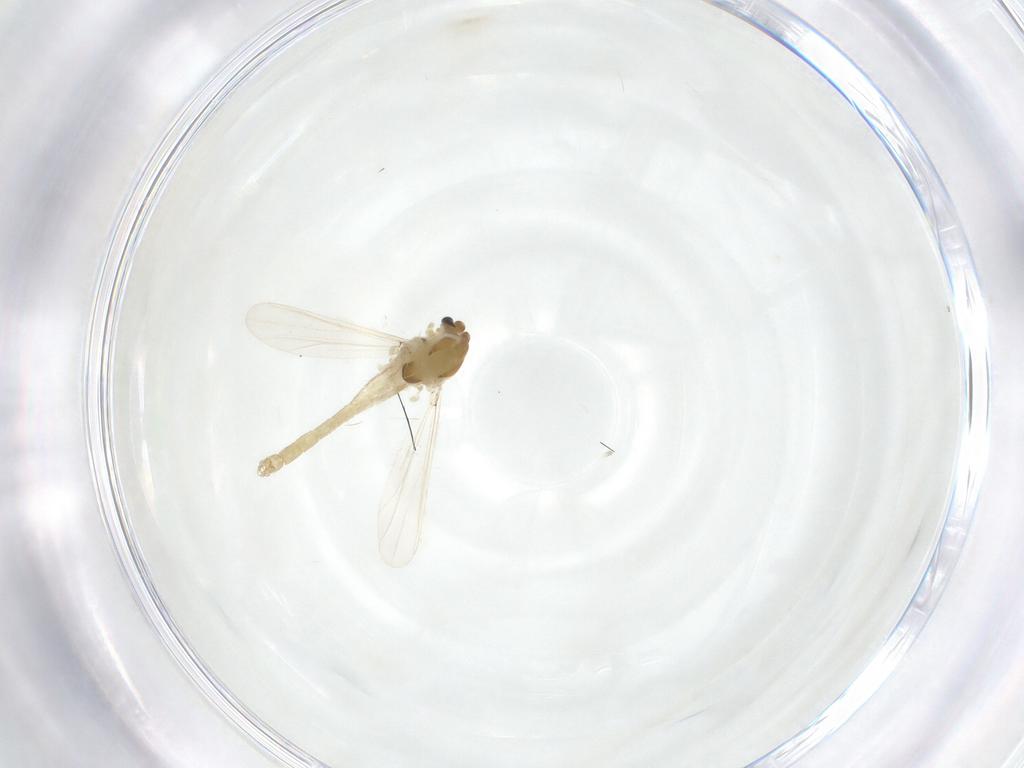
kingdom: Animalia
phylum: Arthropoda
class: Insecta
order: Diptera
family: Chironomidae
